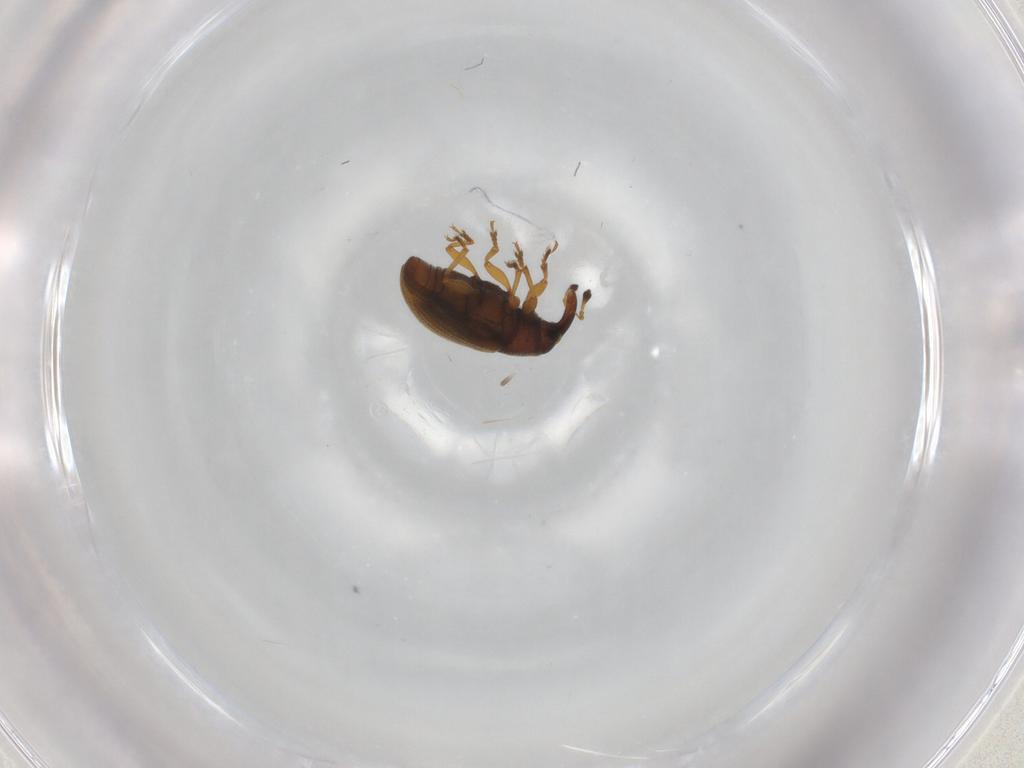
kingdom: Animalia
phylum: Arthropoda
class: Insecta
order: Coleoptera
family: Curculionidae
